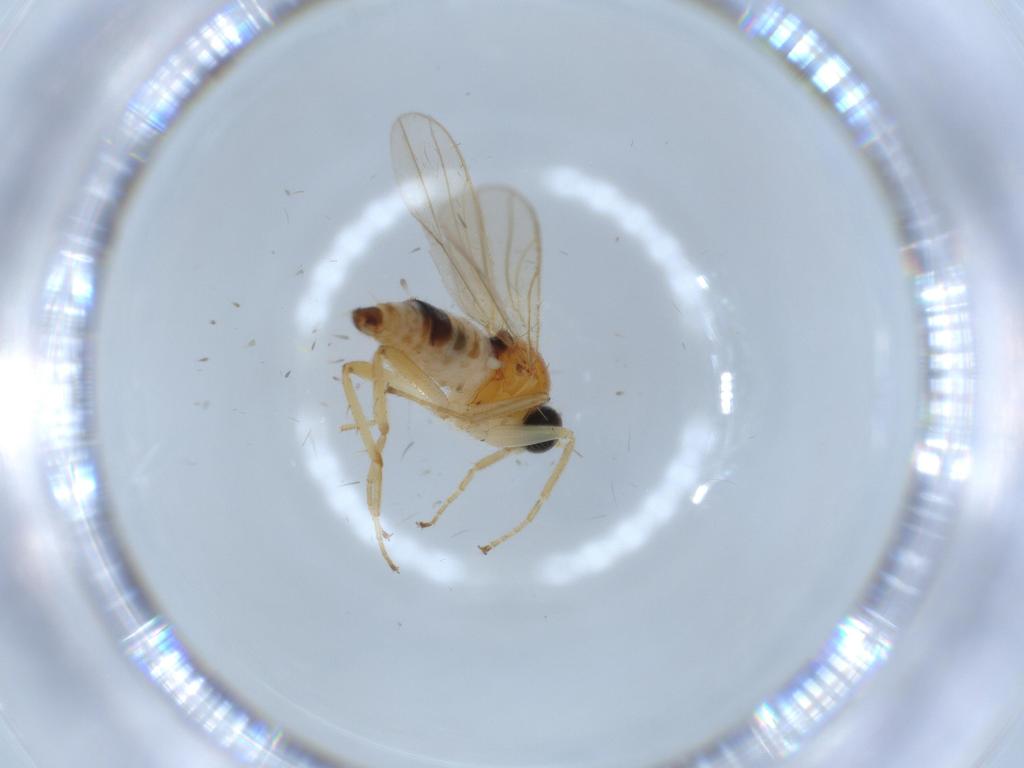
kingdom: Animalia
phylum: Arthropoda
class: Insecta
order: Diptera
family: Hybotidae
